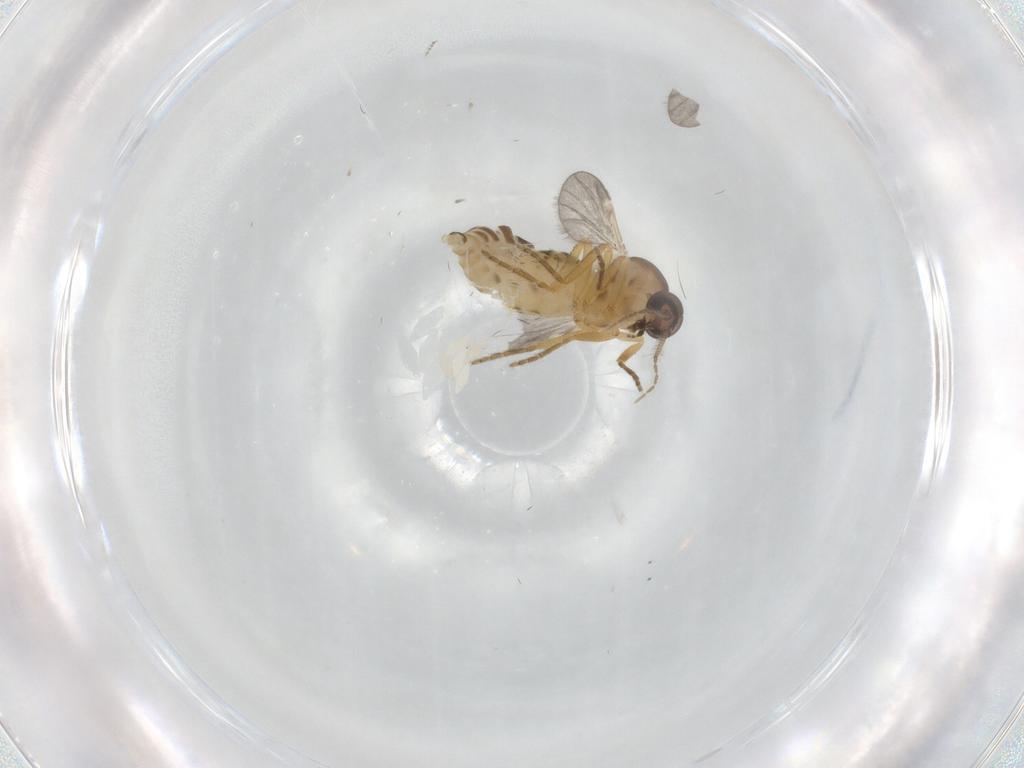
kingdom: Animalia
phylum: Arthropoda
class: Insecta
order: Diptera
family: Ceratopogonidae
